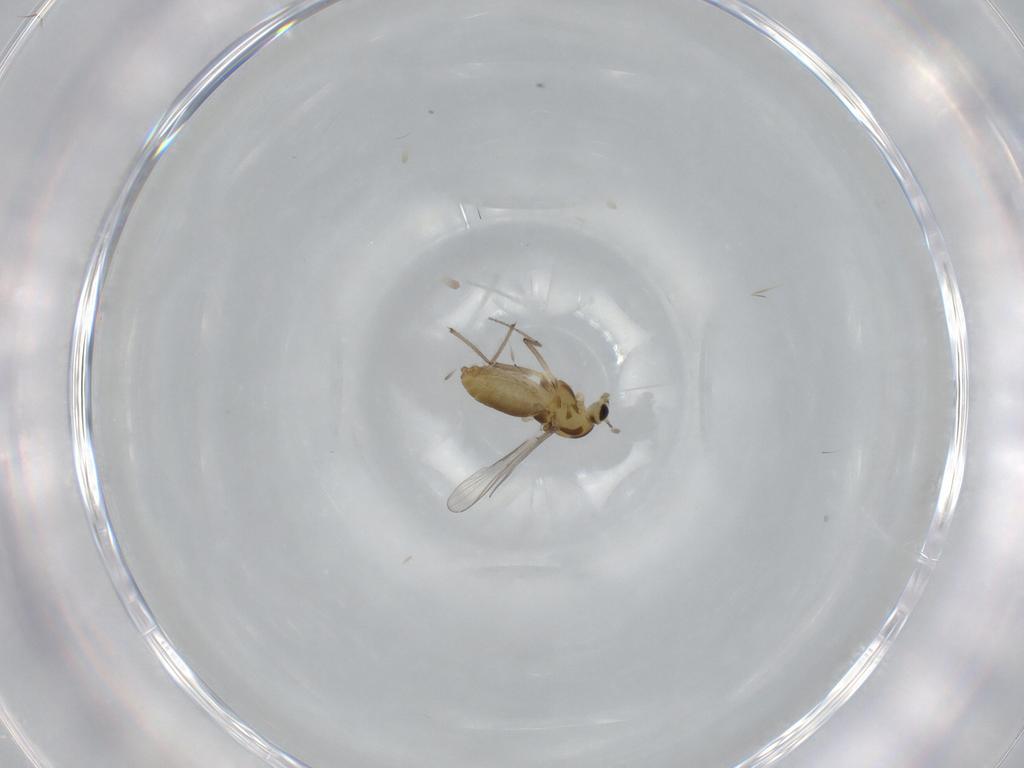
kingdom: Animalia
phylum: Arthropoda
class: Insecta
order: Diptera
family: Chironomidae
